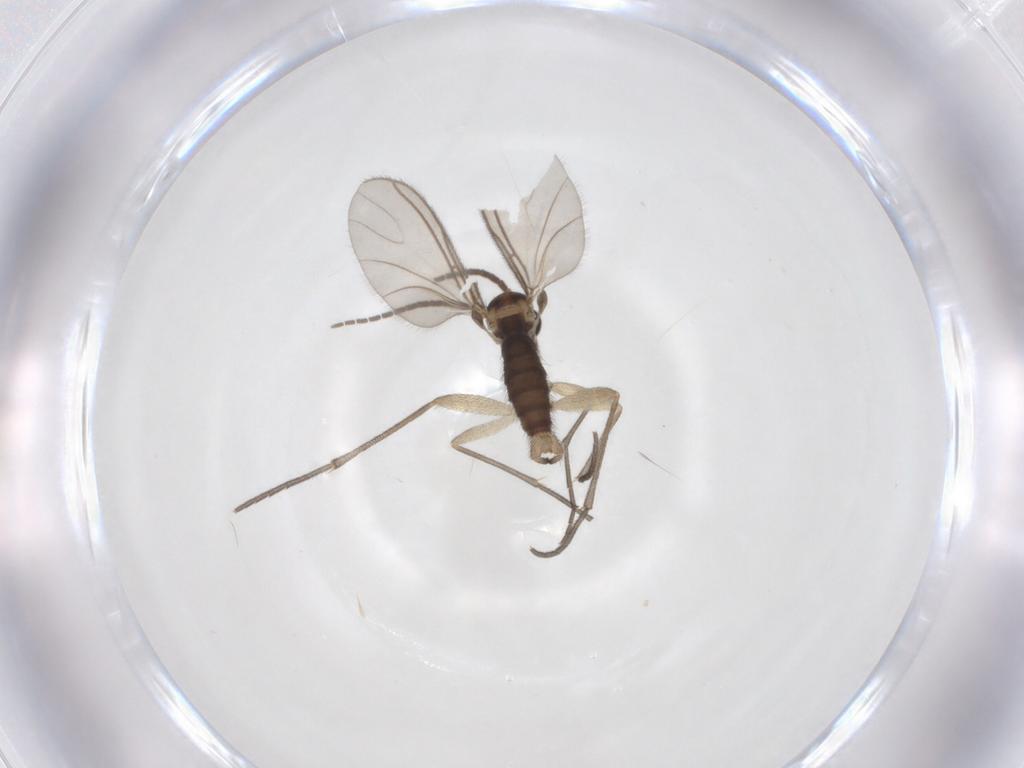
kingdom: Animalia
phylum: Arthropoda
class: Insecta
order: Diptera
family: Sciaridae
